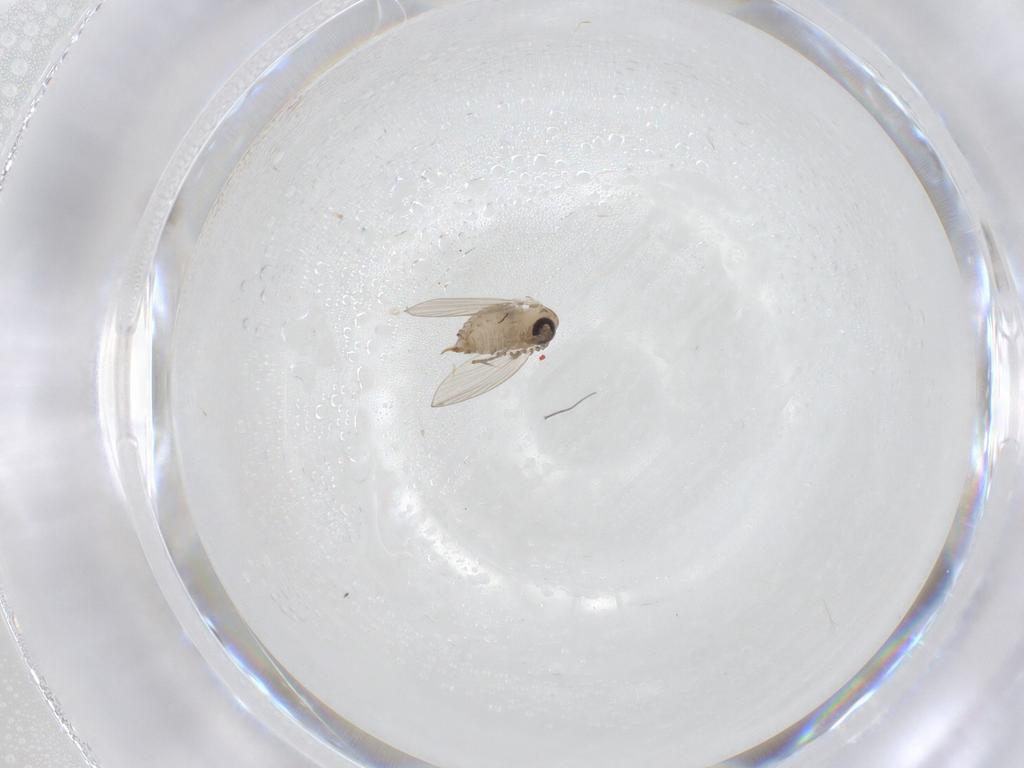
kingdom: Animalia
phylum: Arthropoda
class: Insecta
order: Diptera
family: Psychodidae
